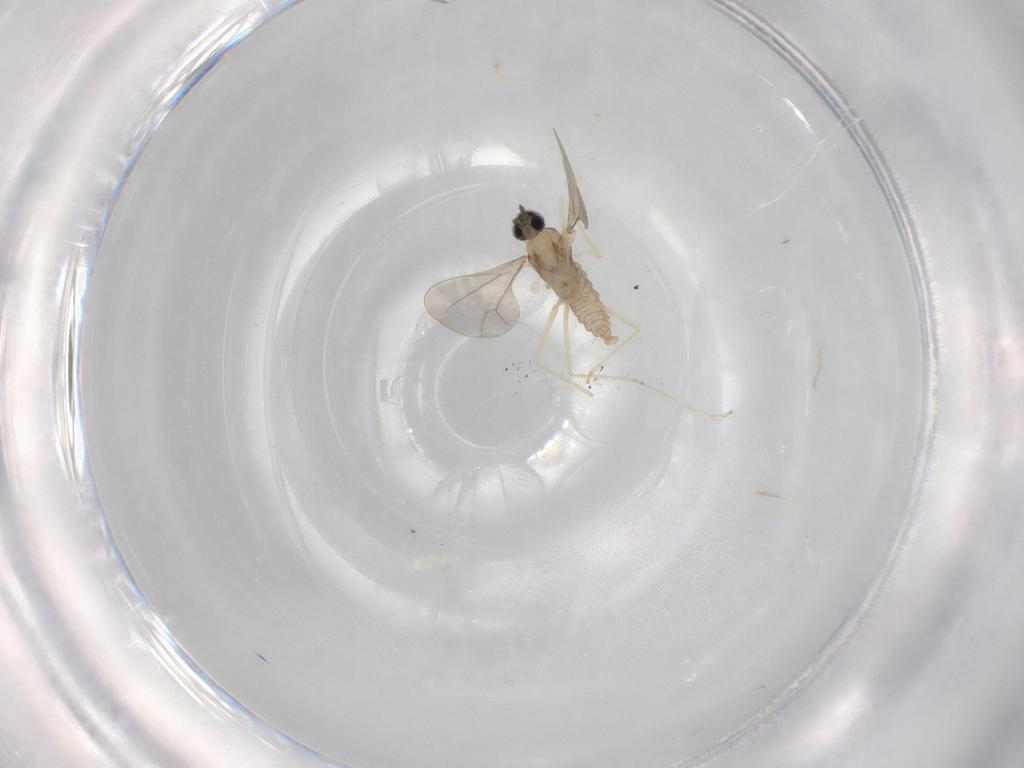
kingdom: Animalia
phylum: Arthropoda
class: Insecta
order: Diptera
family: Cecidomyiidae
